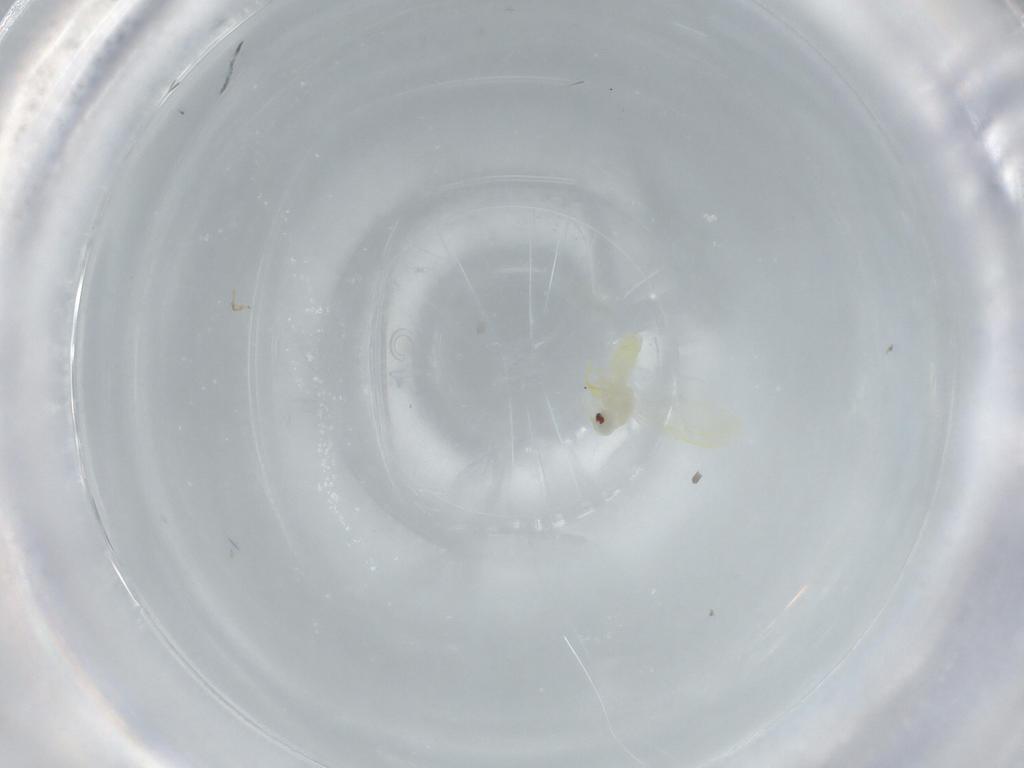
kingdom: Animalia
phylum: Arthropoda
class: Insecta
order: Hemiptera
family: Aleyrodidae
